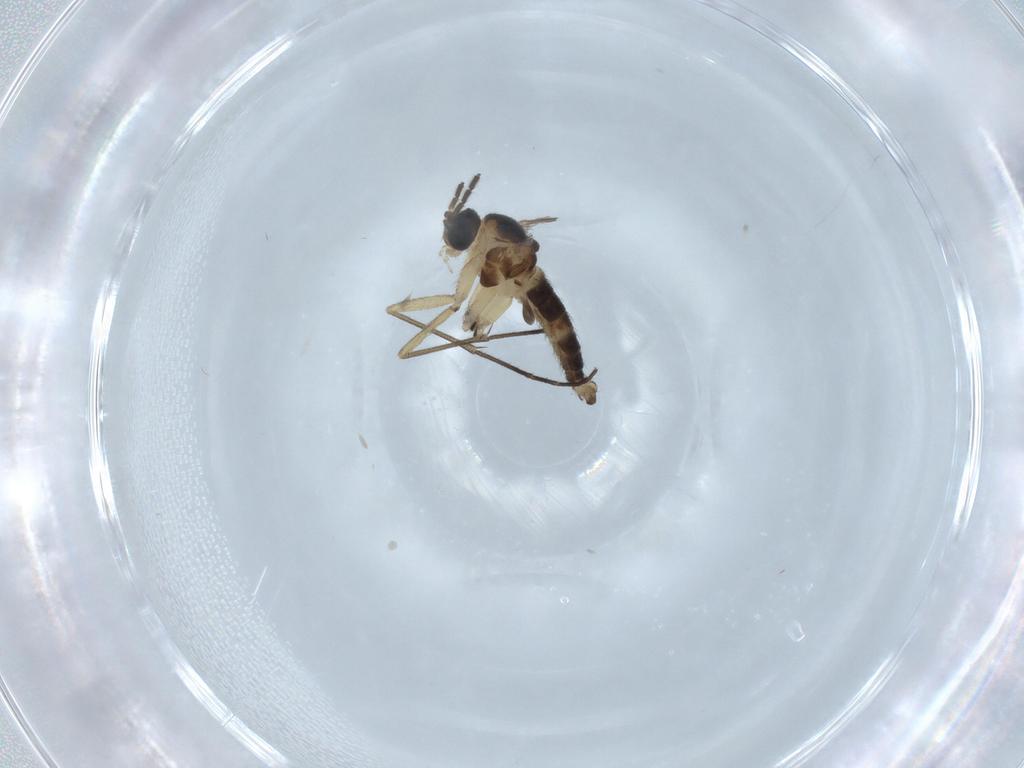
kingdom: Animalia
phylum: Arthropoda
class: Insecta
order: Diptera
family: Sciaridae
